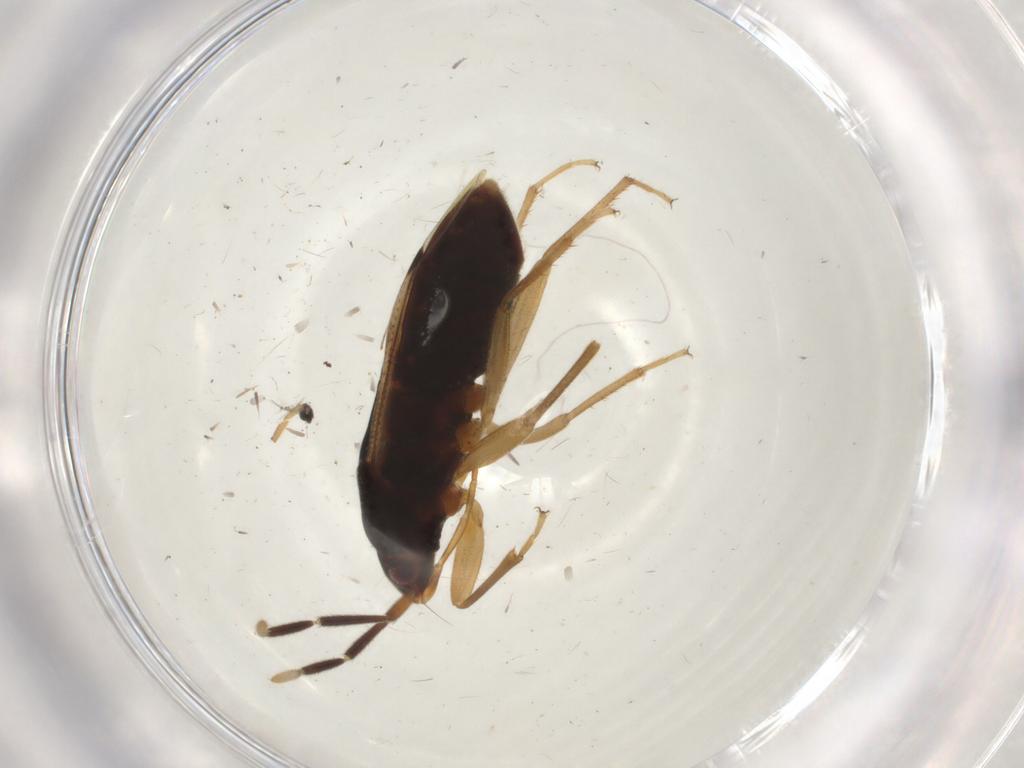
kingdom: Animalia
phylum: Arthropoda
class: Insecta
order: Hemiptera
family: Rhyparochromidae
